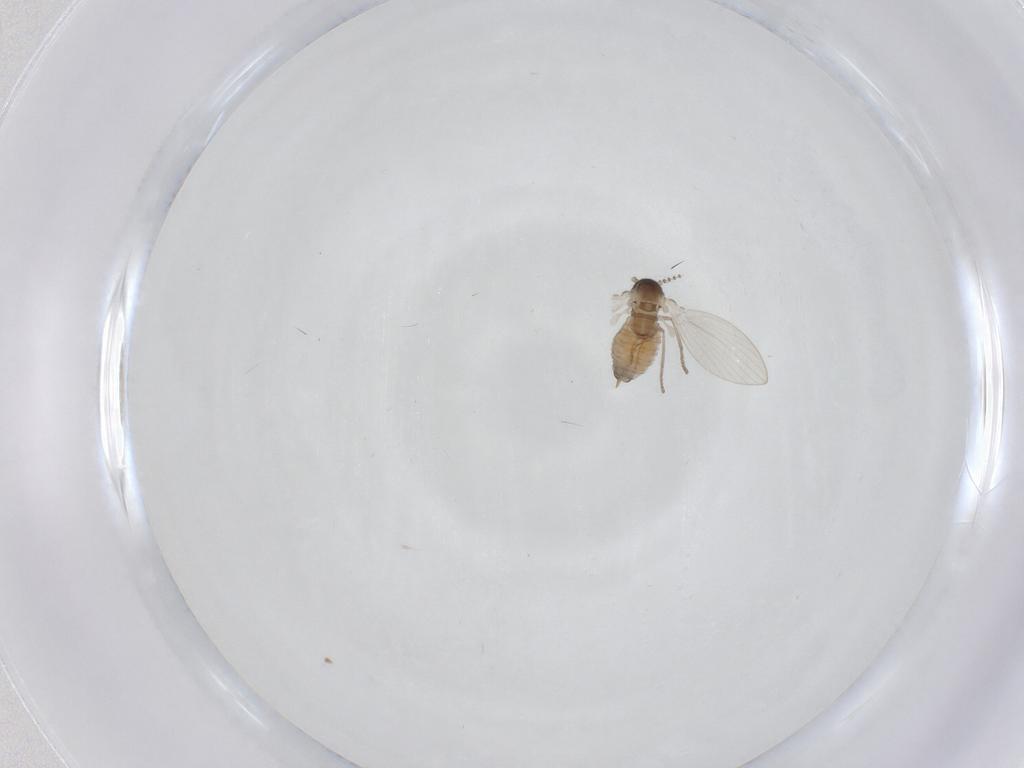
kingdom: Animalia
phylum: Arthropoda
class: Insecta
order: Diptera
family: Psychodidae
